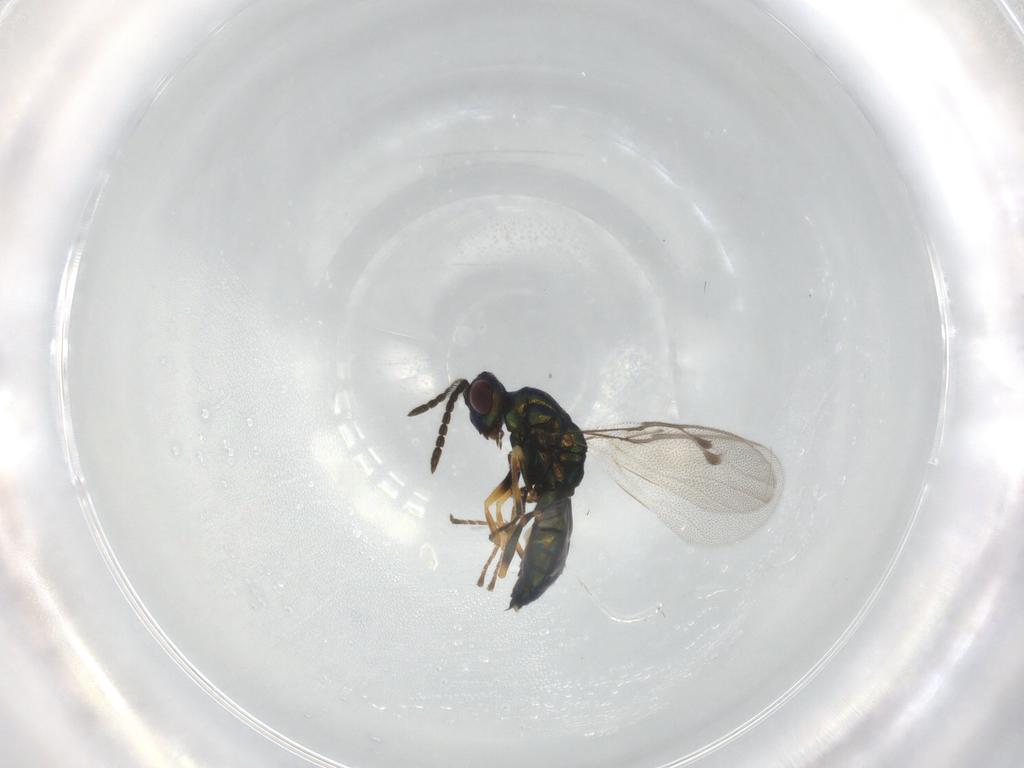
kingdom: Animalia
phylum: Arthropoda
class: Insecta
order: Hymenoptera
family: Pteromalidae
